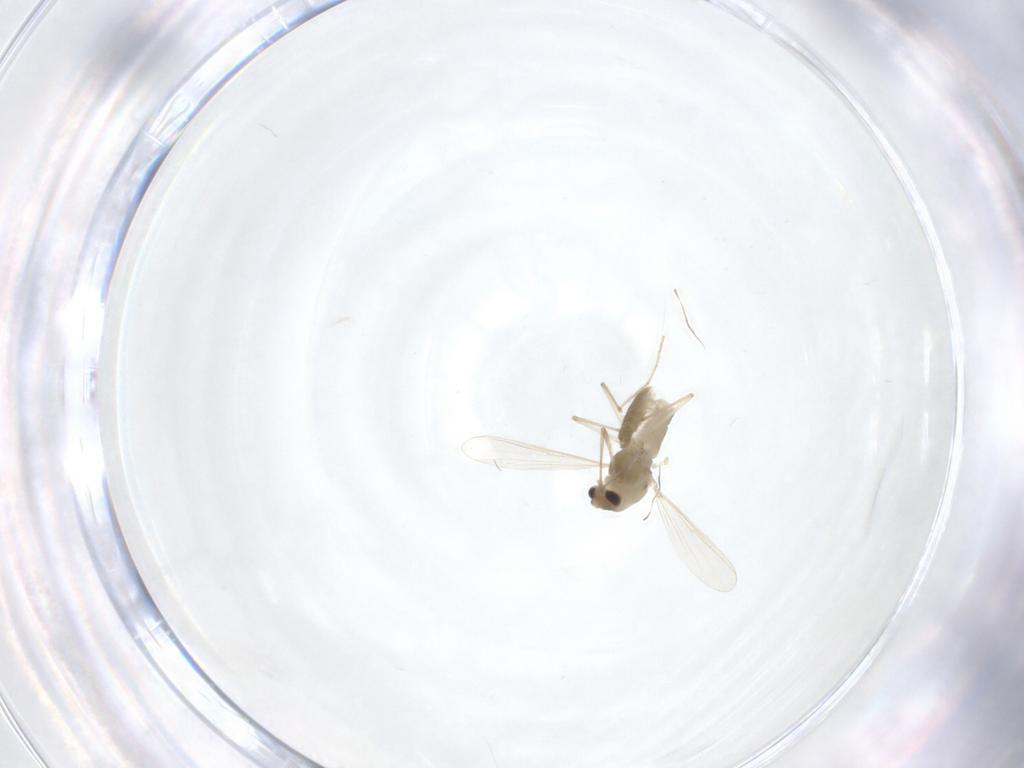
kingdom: Animalia
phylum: Arthropoda
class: Insecta
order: Diptera
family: Chironomidae
